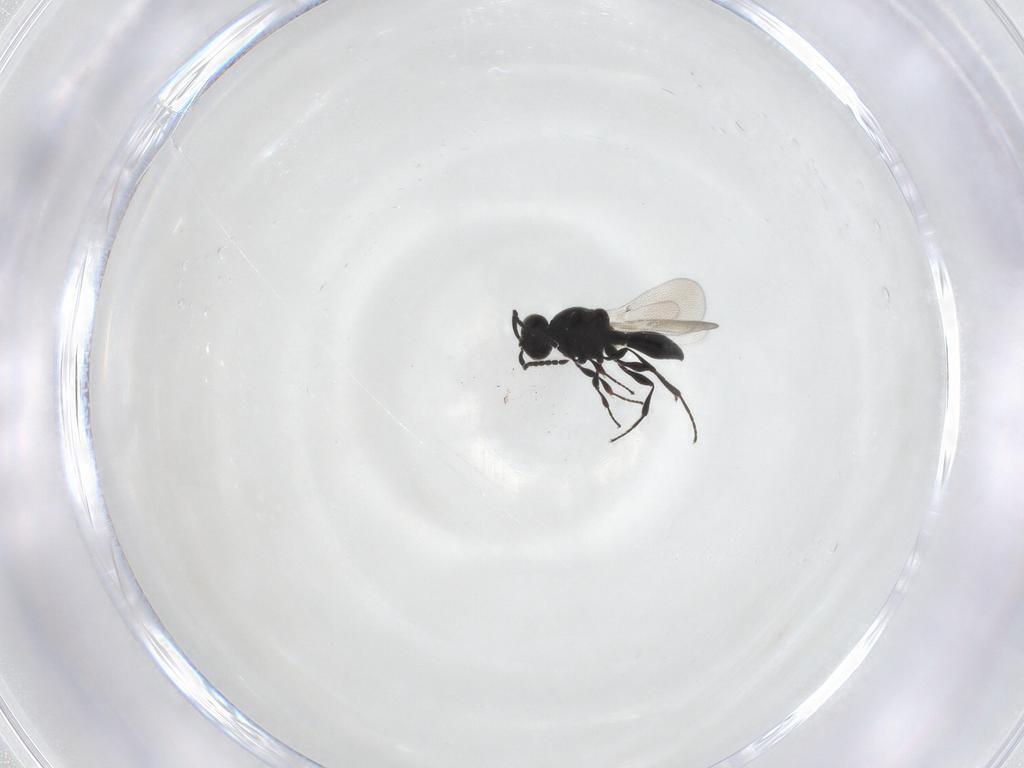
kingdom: Animalia
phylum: Arthropoda
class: Insecta
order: Hymenoptera
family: Platygastridae
